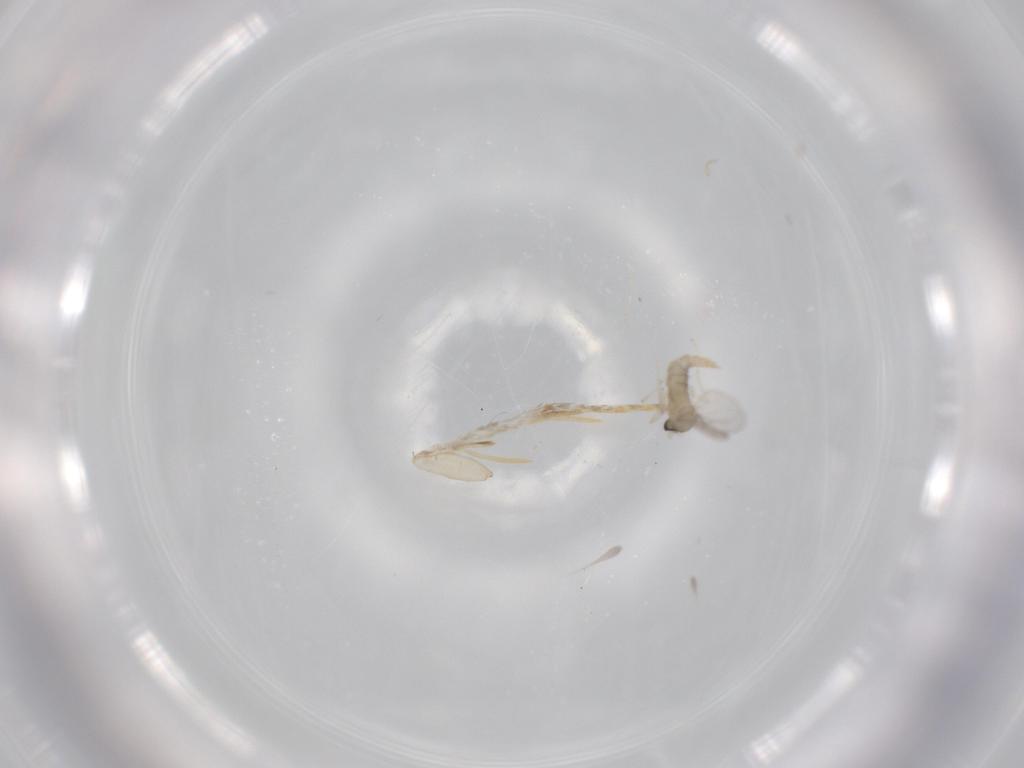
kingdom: Animalia
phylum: Arthropoda
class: Insecta
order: Diptera
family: Cecidomyiidae
